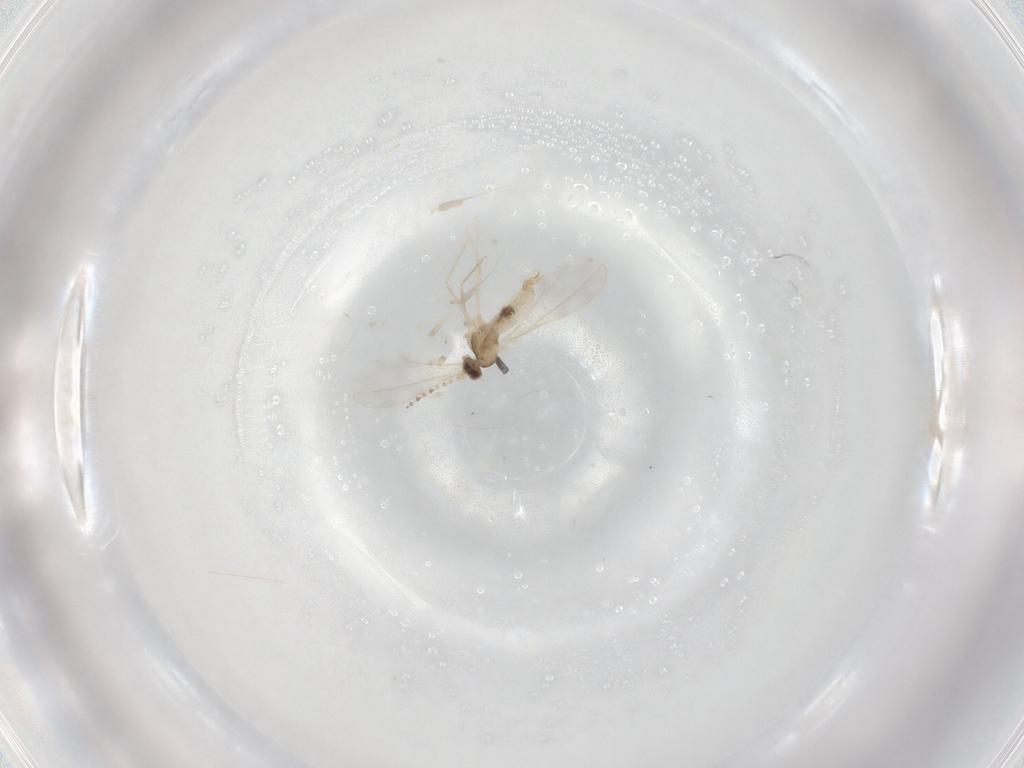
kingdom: Animalia
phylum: Arthropoda
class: Insecta
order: Diptera
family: Cecidomyiidae
